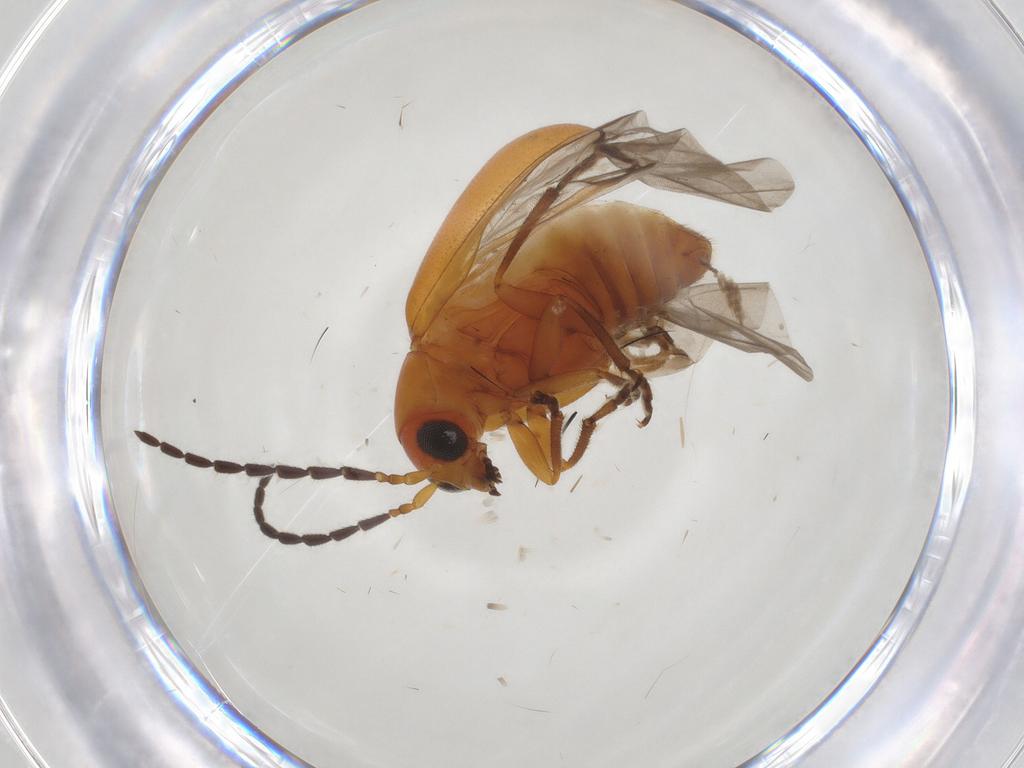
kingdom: Animalia
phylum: Arthropoda
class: Insecta
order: Coleoptera
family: Chrysomelidae
